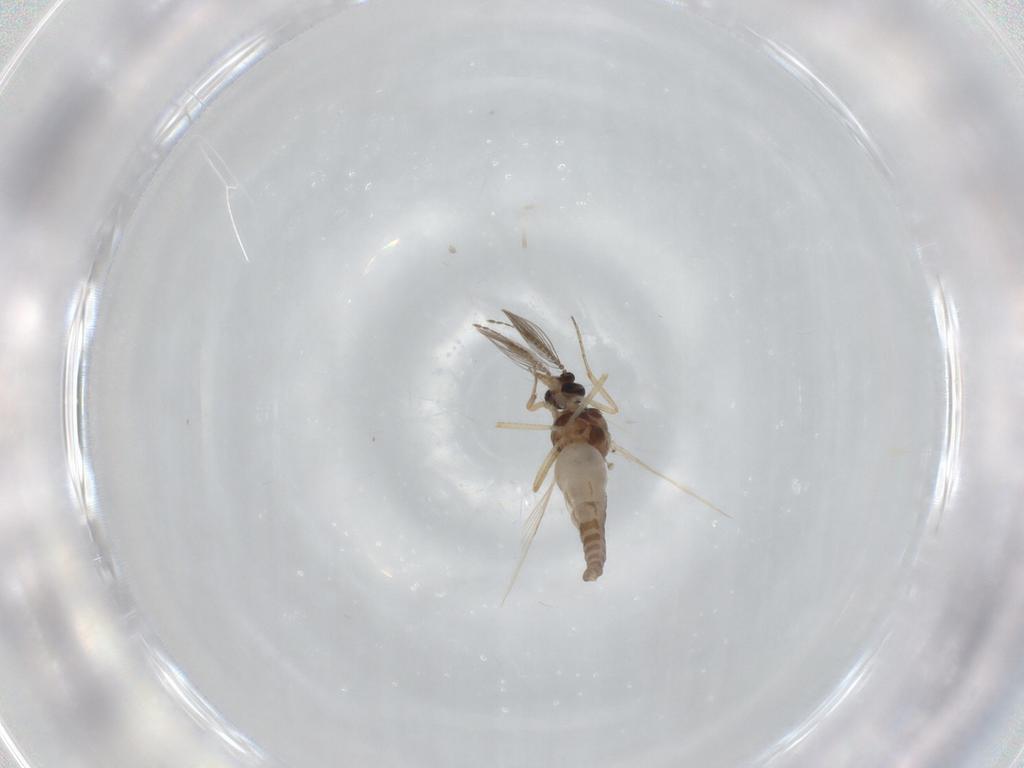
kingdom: Animalia
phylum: Arthropoda
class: Insecta
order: Diptera
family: Ceratopogonidae
